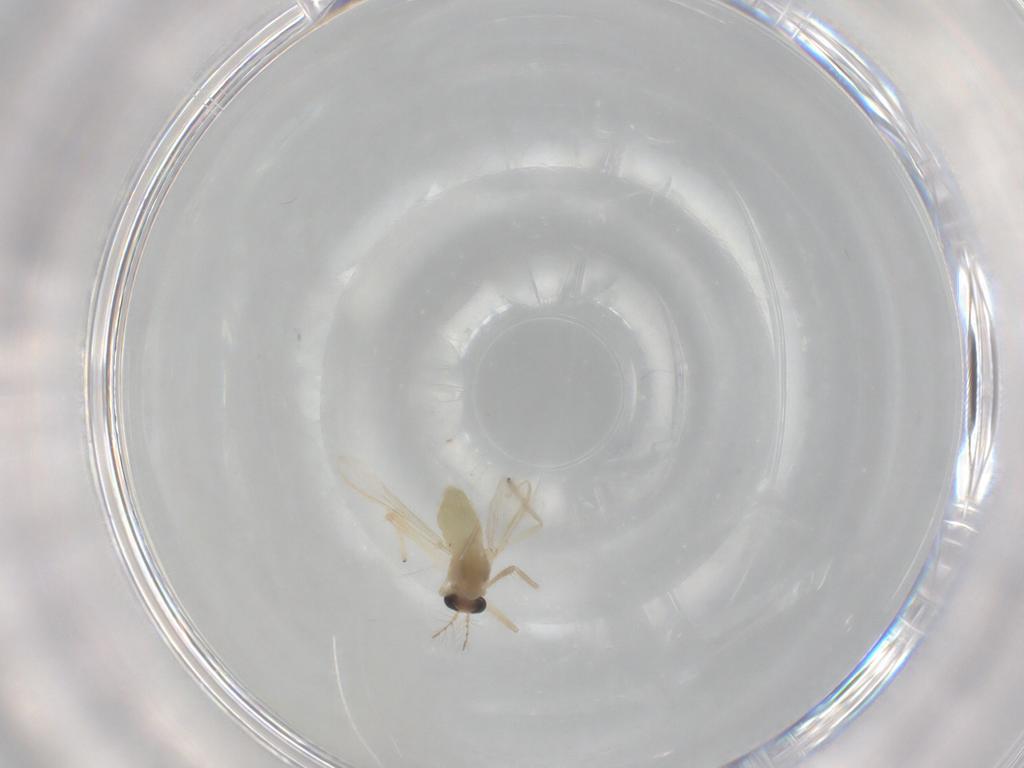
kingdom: Animalia
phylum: Arthropoda
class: Insecta
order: Diptera
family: Chironomidae
